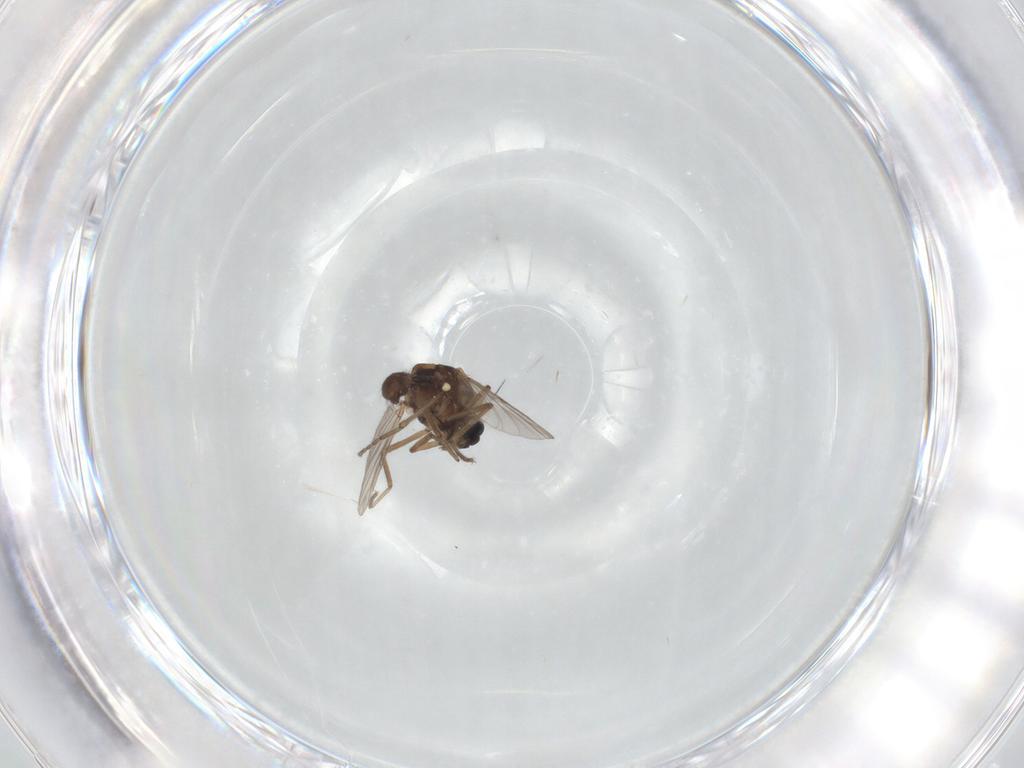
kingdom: Animalia
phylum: Arthropoda
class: Insecta
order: Diptera
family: Ceratopogonidae
